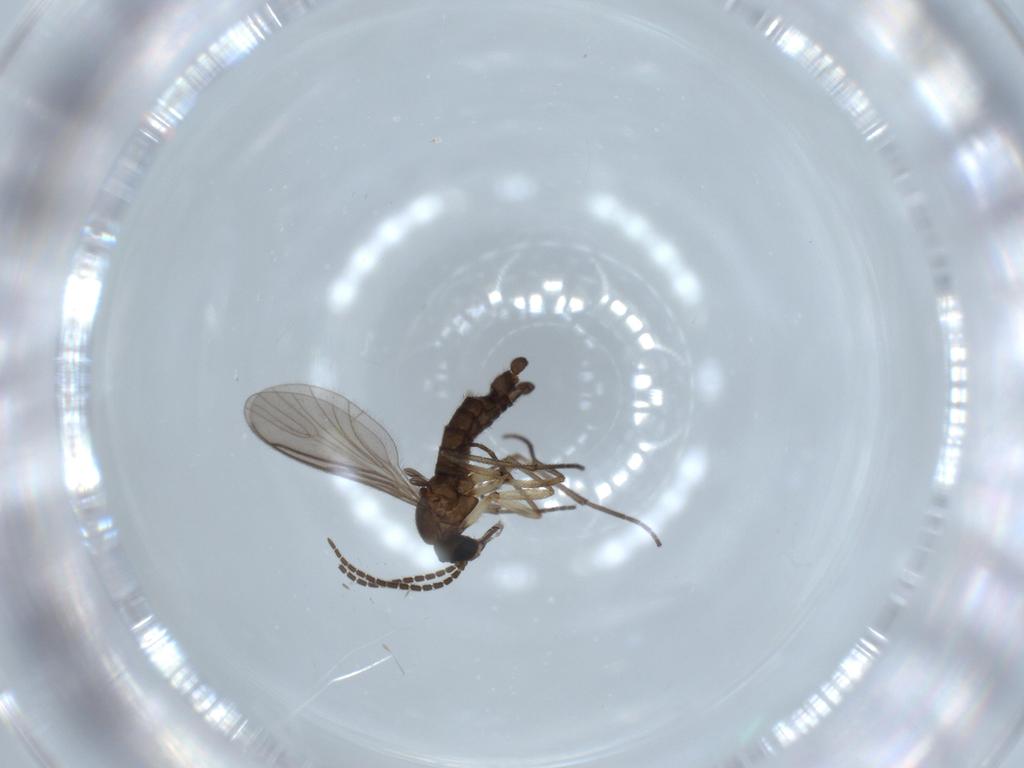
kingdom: Animalia
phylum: Arthropoda
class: Insecta
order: Diptera
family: Sciaridae
